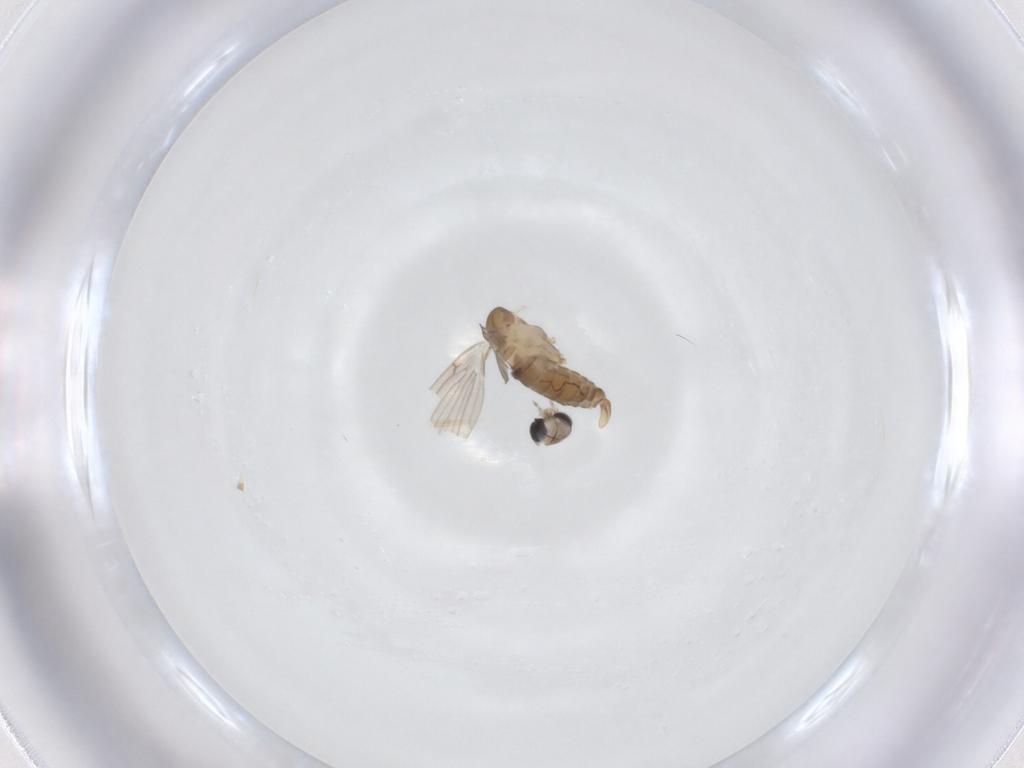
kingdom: Animalia
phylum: Arthropoda
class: Insecta
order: Diptera
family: Psychodidae
